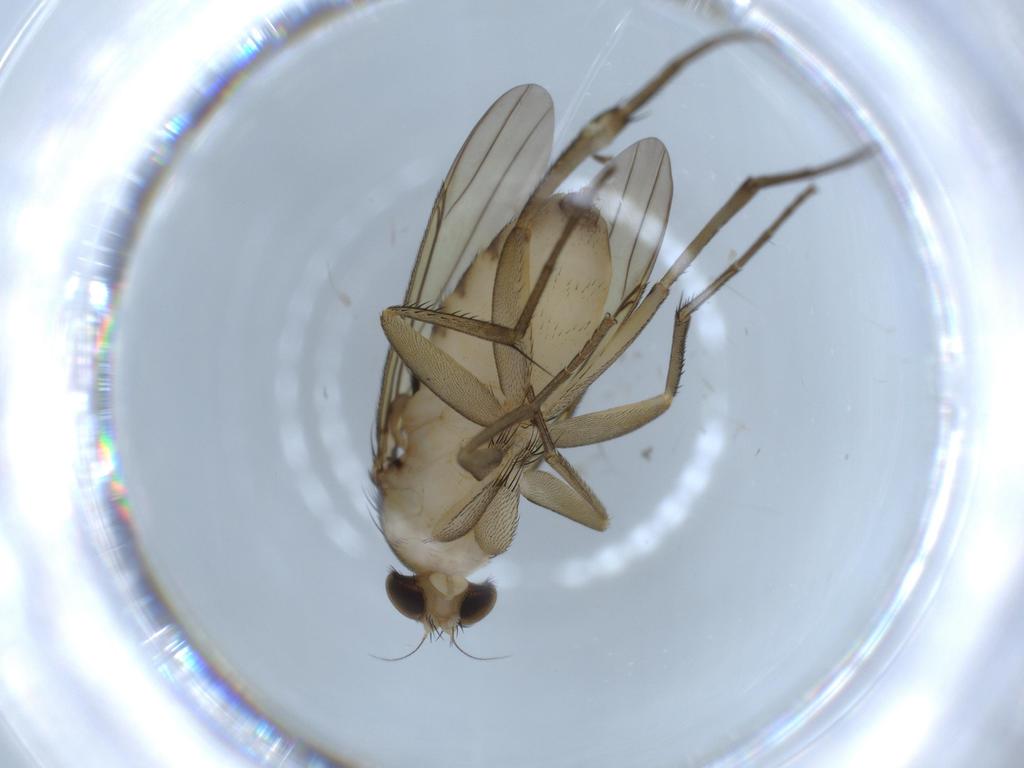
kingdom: Animalia
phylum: Arthropoda
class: Insecta
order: Diptera
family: Phoridae
